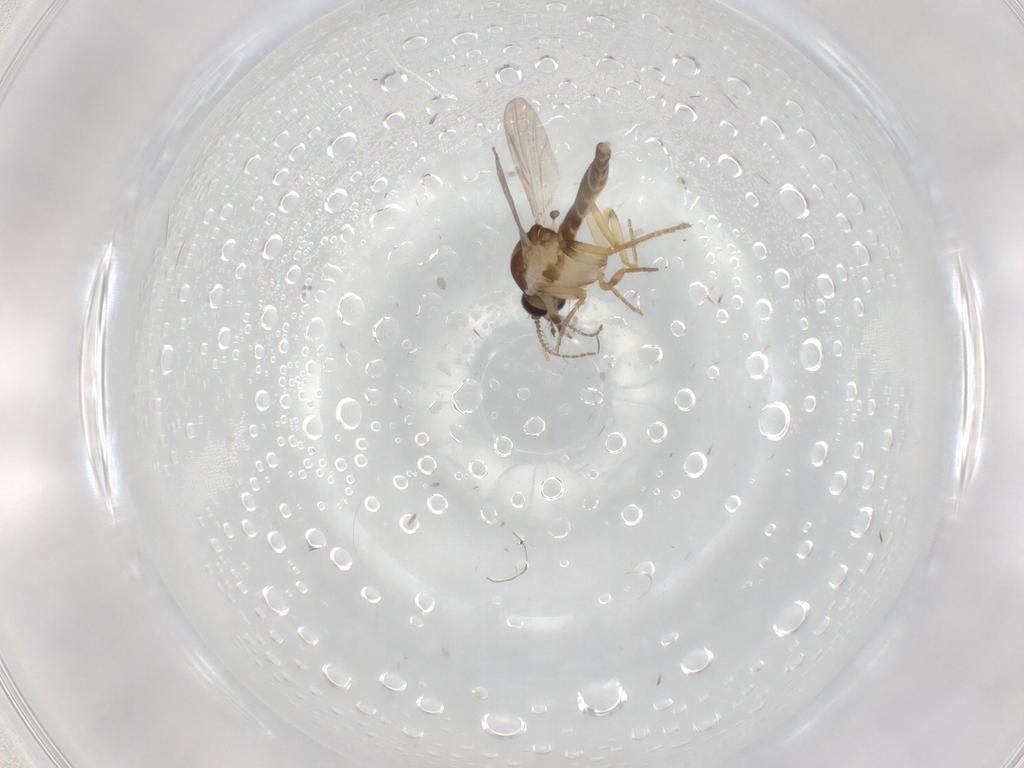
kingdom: Animalia
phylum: Arthropoda
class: Insecta
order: Diptera
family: Ceratopogonidae
